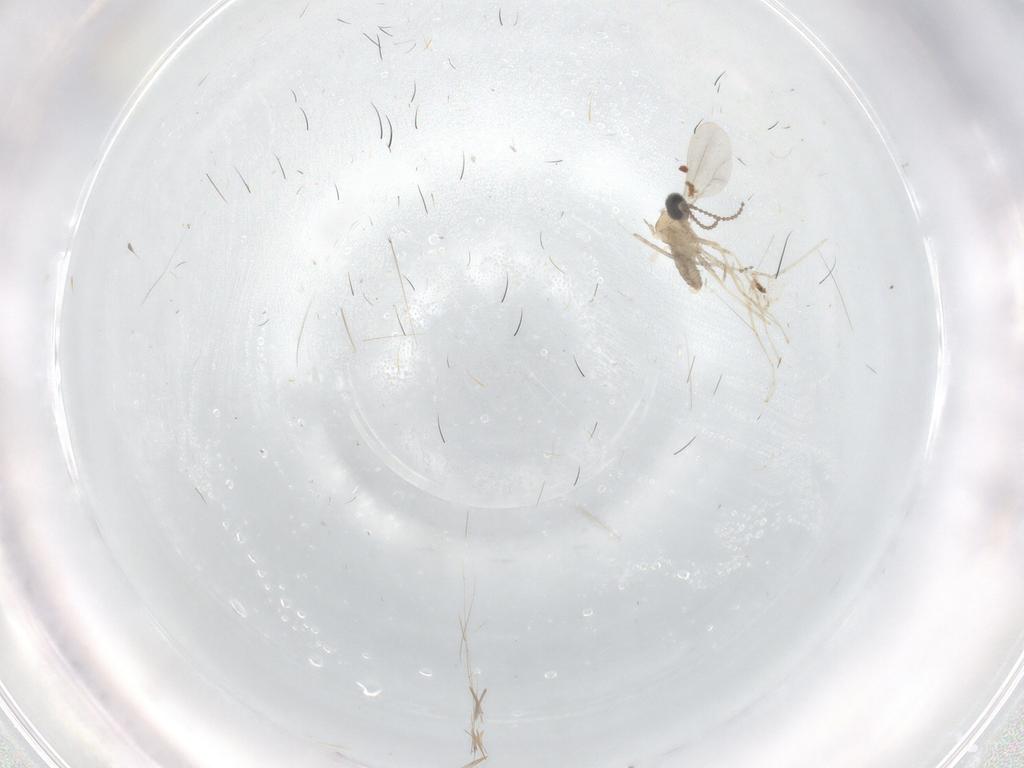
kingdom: Animalia
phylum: Arthropoda
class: Insecta
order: Diptera
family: Cecidomyiidae
